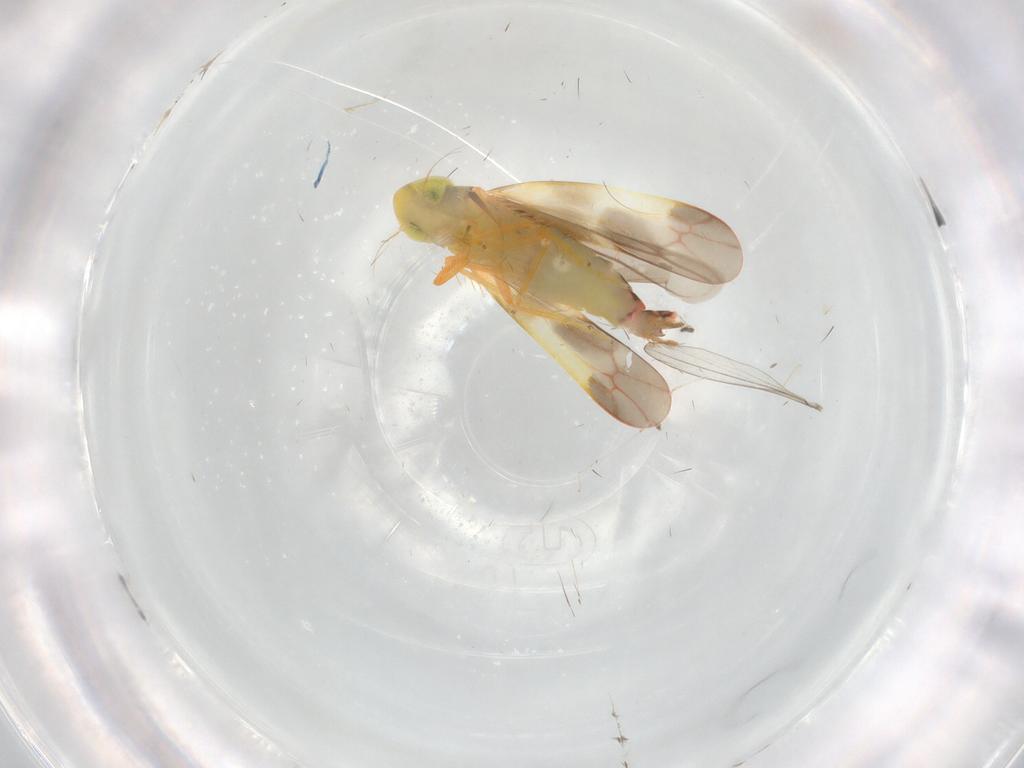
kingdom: Animalia
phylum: Arthropoda
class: Insecta
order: Hemiptera
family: Cicadellidae
